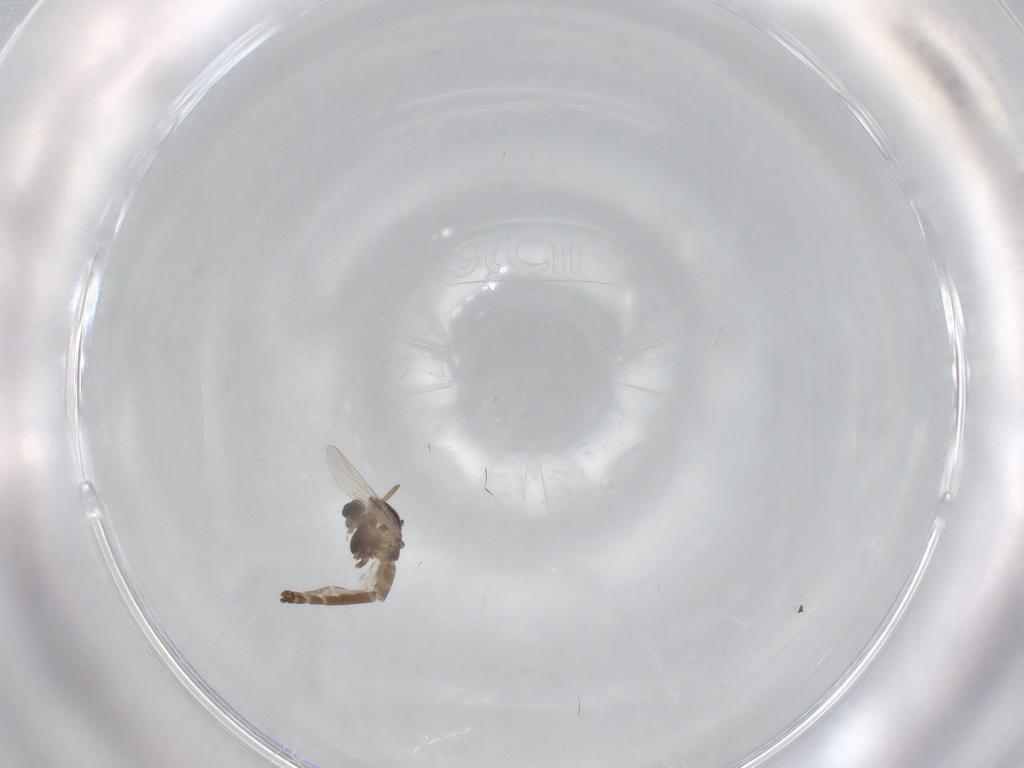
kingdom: Animalia
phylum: Arthropoda
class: Insecta
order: Diptera
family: Chironomidae
